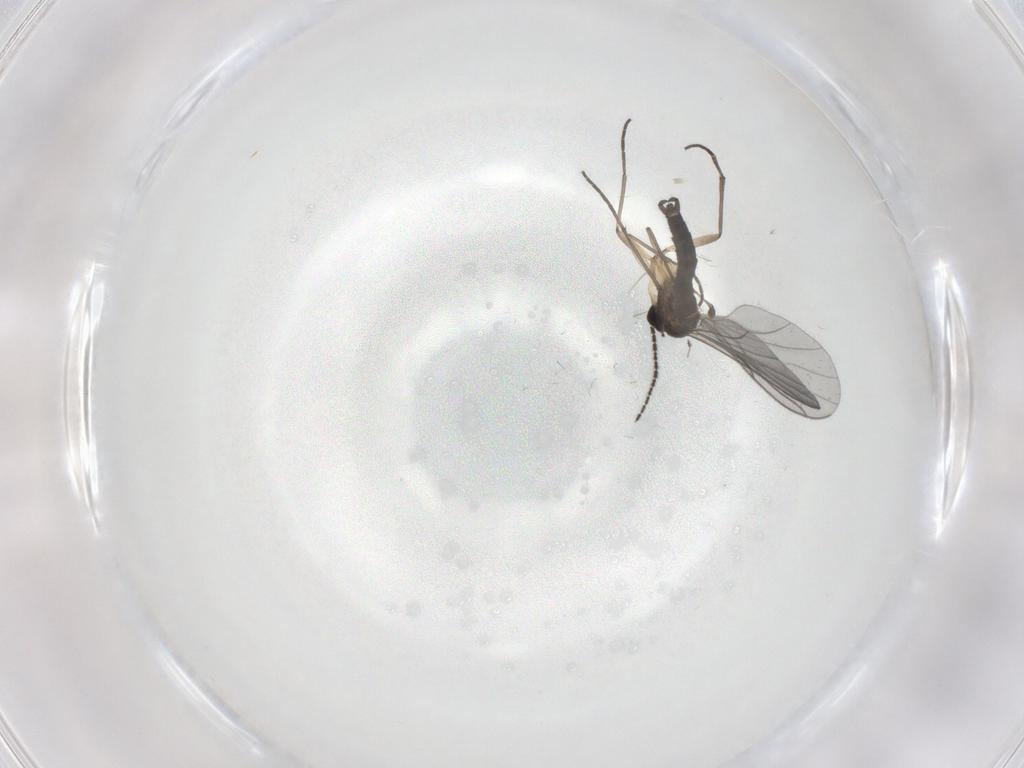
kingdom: Animalia
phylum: Arthropoda
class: Insecta
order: Diptera
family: Sciaridae
